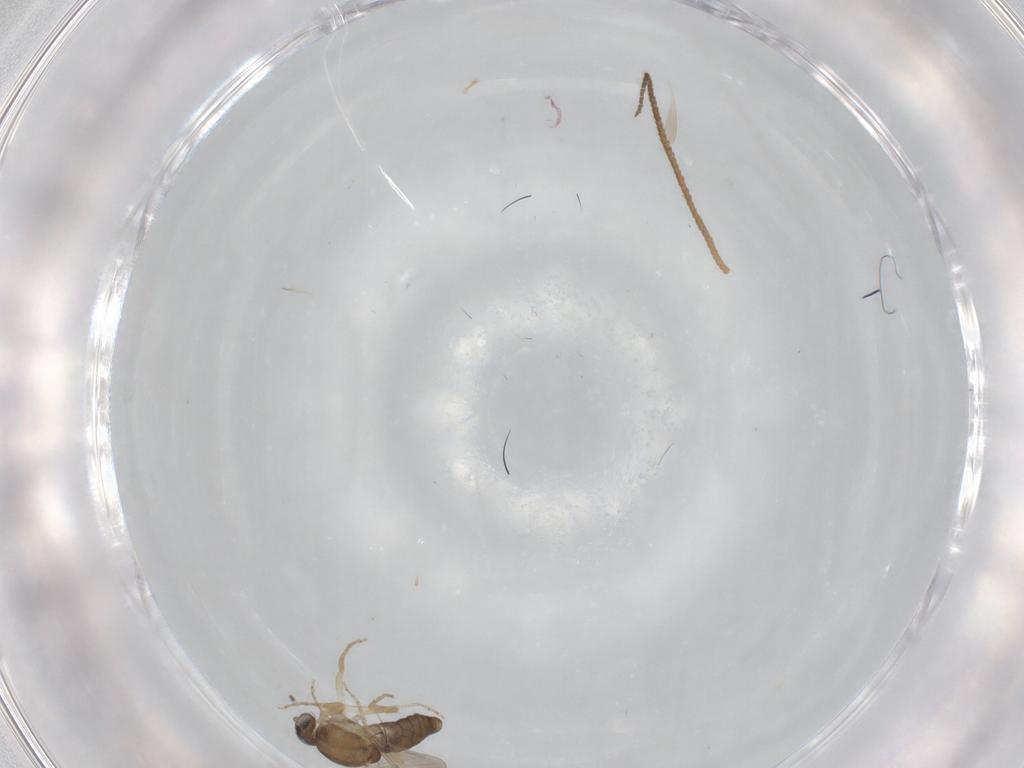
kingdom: Animalia
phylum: Arthropoda
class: Insecta
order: Diptera
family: Ceratopogonidae
